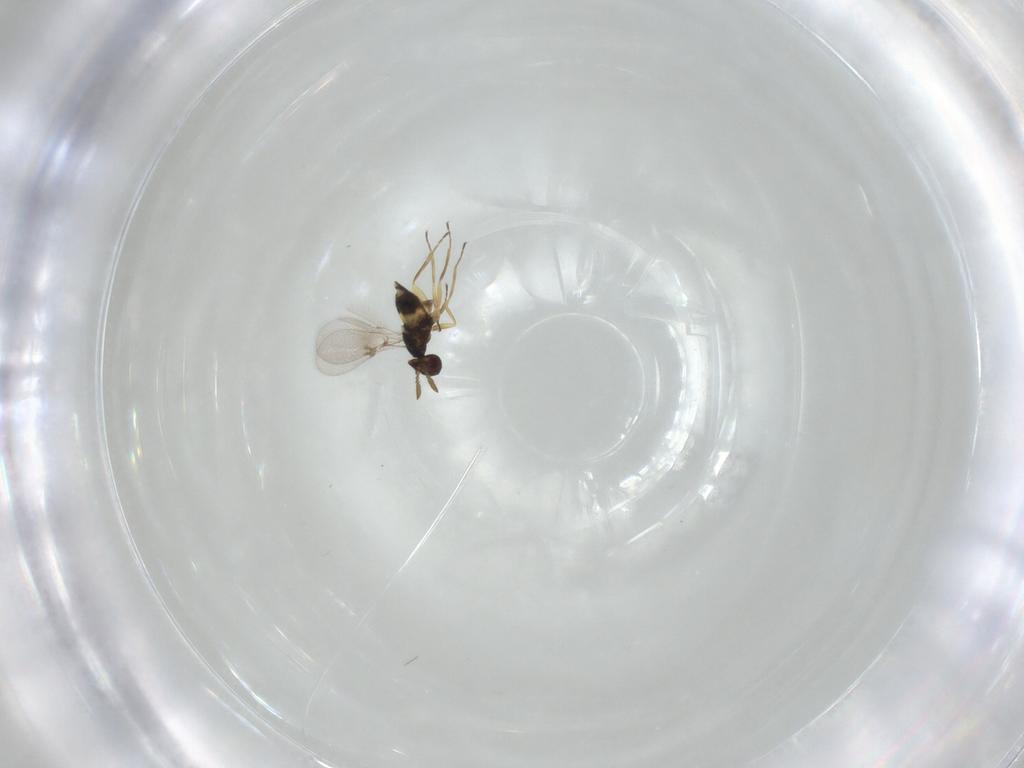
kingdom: Animalia
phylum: Arthropoda
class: Insecta
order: Hymenoptera
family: Eulophidae
